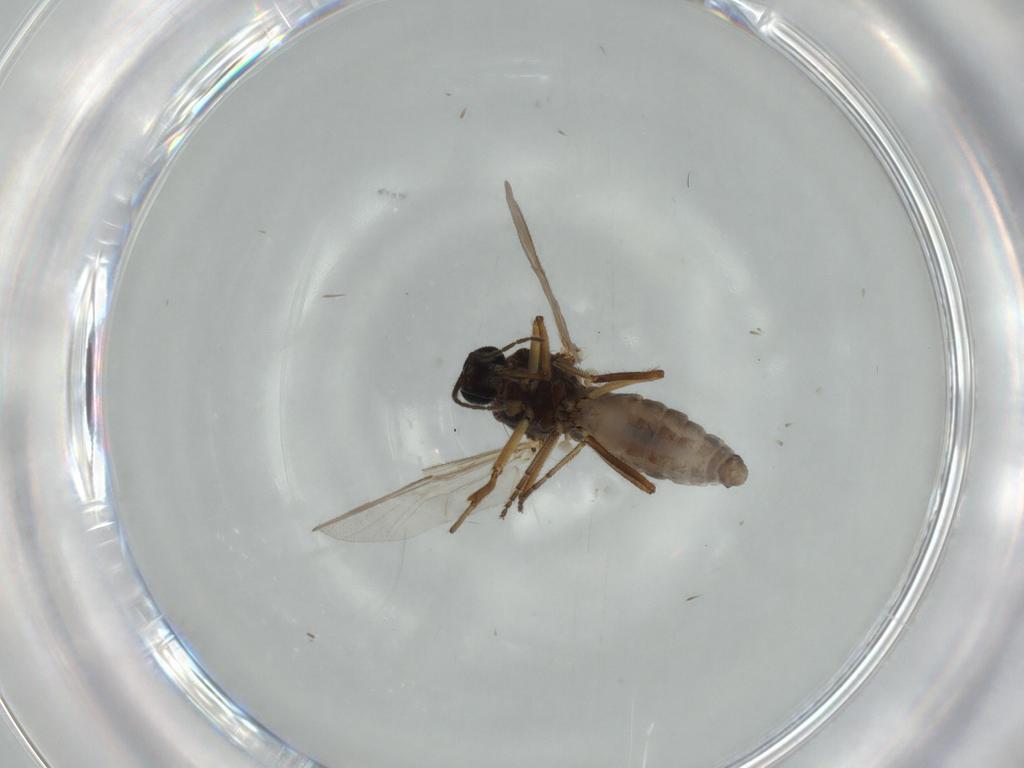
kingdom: Animalia
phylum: Arthropoda
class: Insecta
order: Diptera
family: Ceratopogonidae
